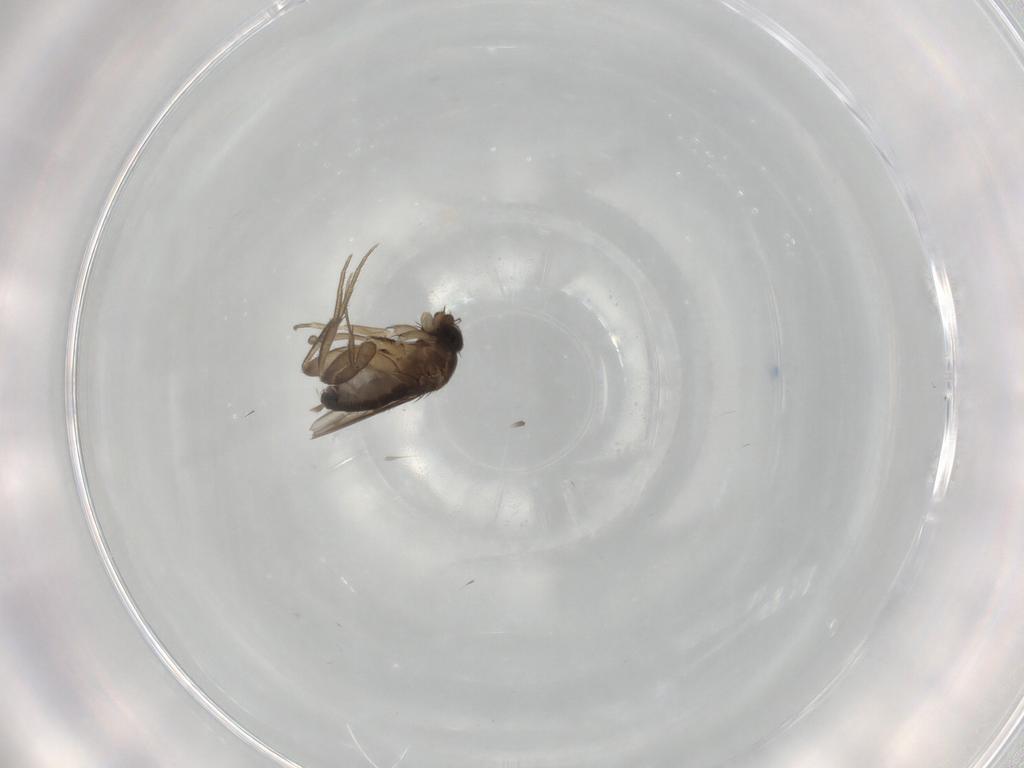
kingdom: Animalia
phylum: Arthropoda
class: Insecta
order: Diptera
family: Phoridae
